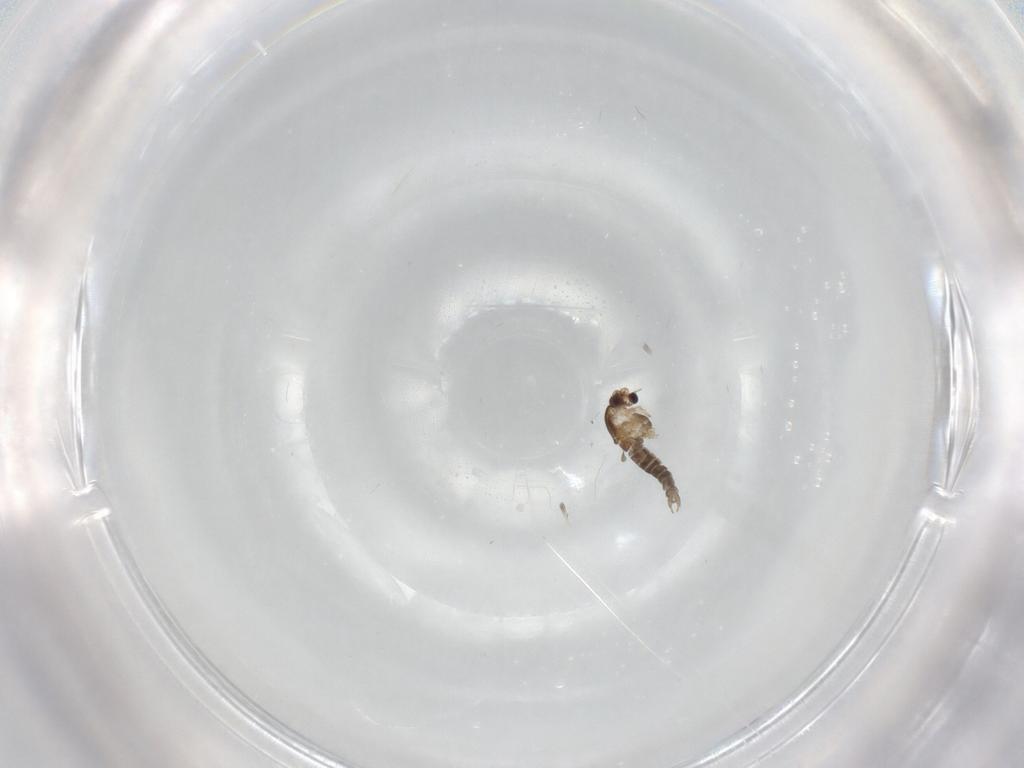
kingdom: Animalia
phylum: Arthropoda
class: Insecta
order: Diptera
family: Chironomidae
